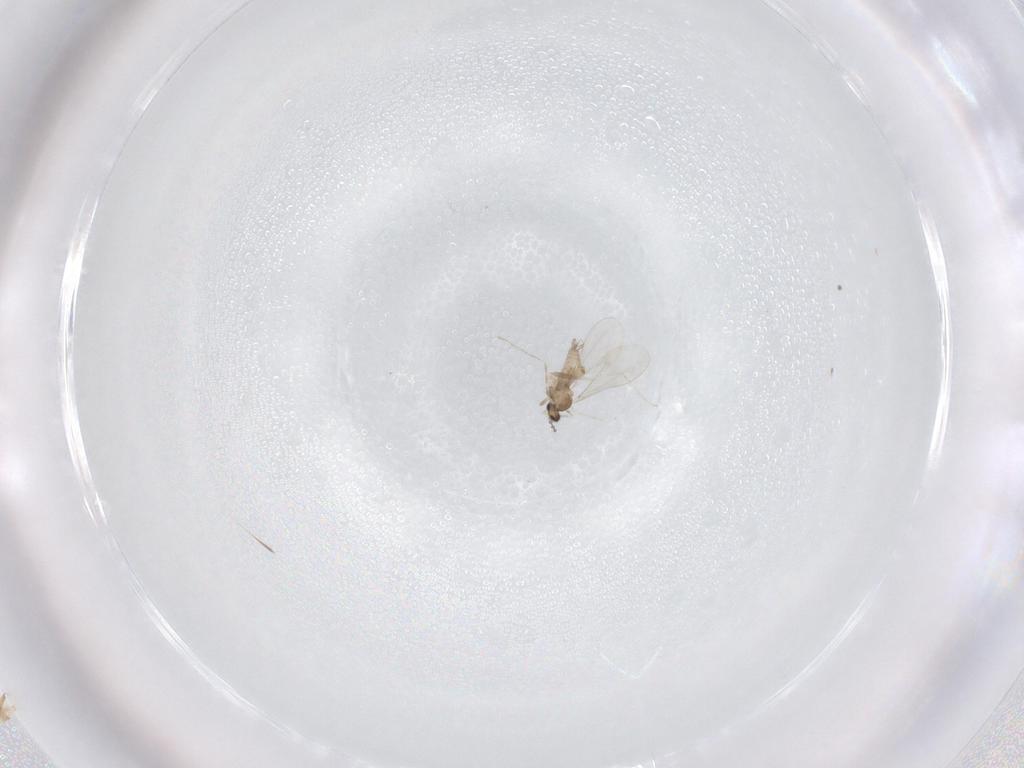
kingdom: Animalia
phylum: Arthropoda
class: Insecta
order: Diptera
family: Cecidomyiidae
